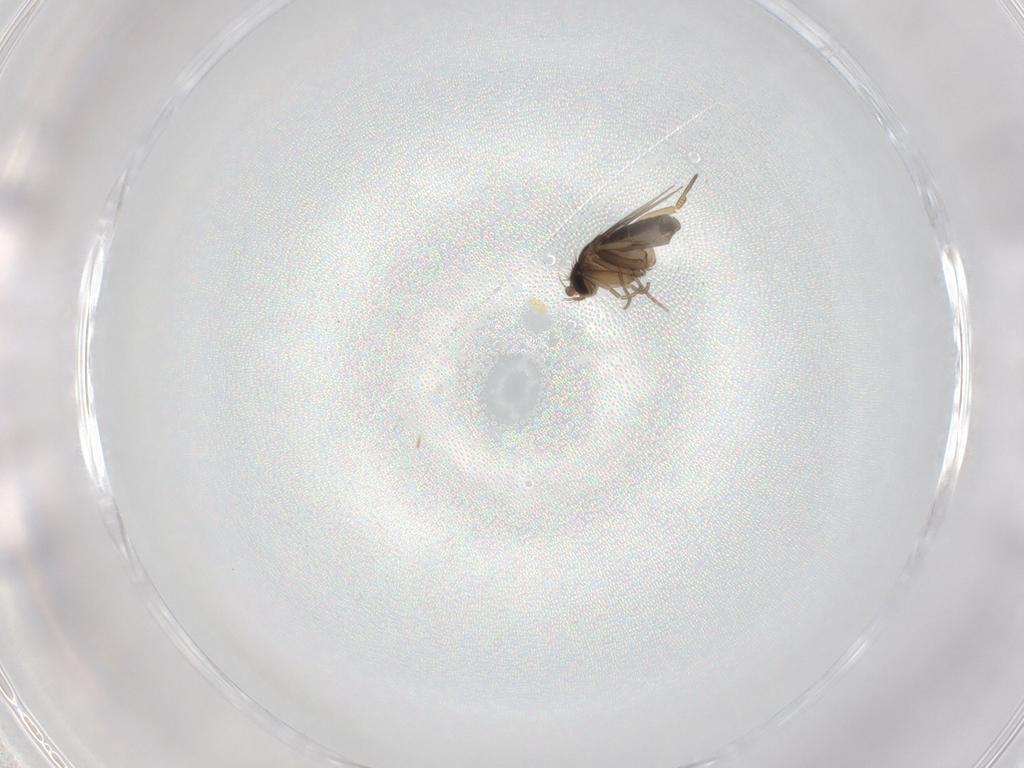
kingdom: Animalia
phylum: Arthropoda
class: Insecta
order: Diptera
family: Phoridae
